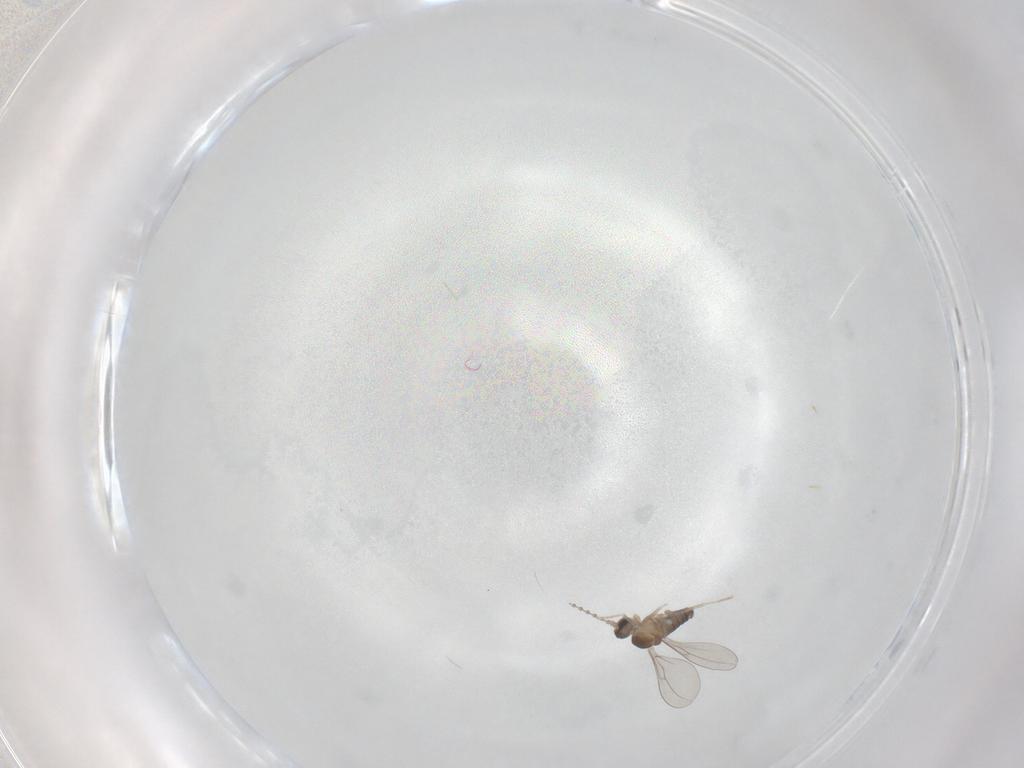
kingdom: Animalia
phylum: Arthropoda
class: Insecta
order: Diptera
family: Cecidomyiidae
